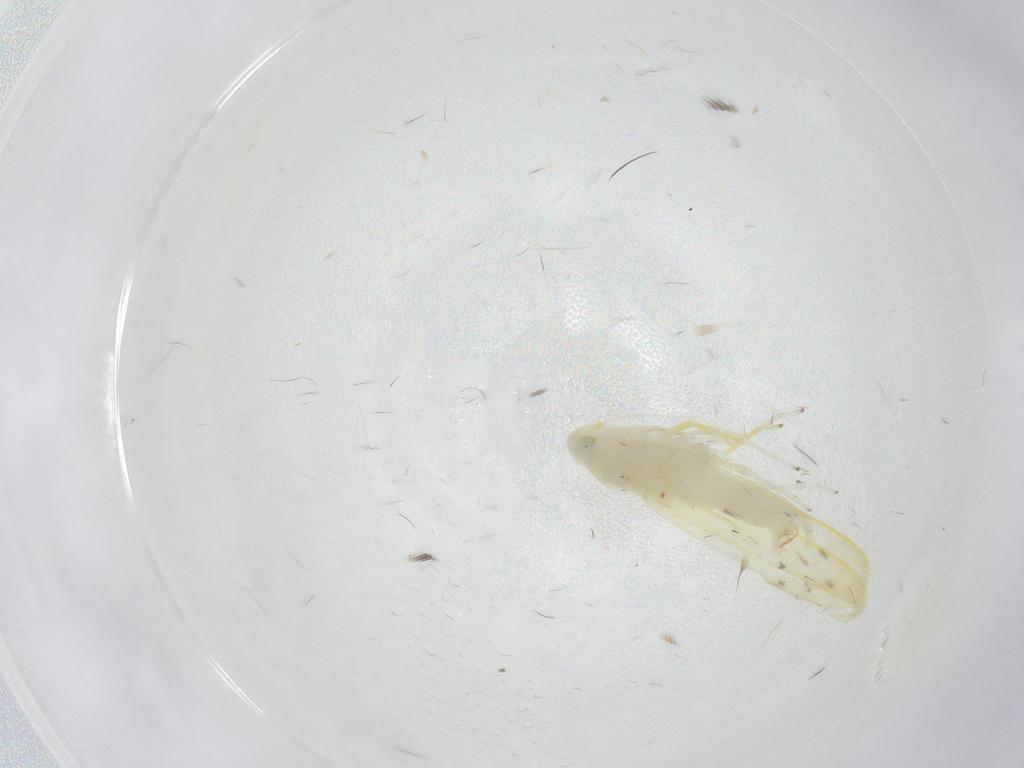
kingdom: Animalia
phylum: Arthropoda
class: Insecta
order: Hemiptera
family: Cicadellidae
